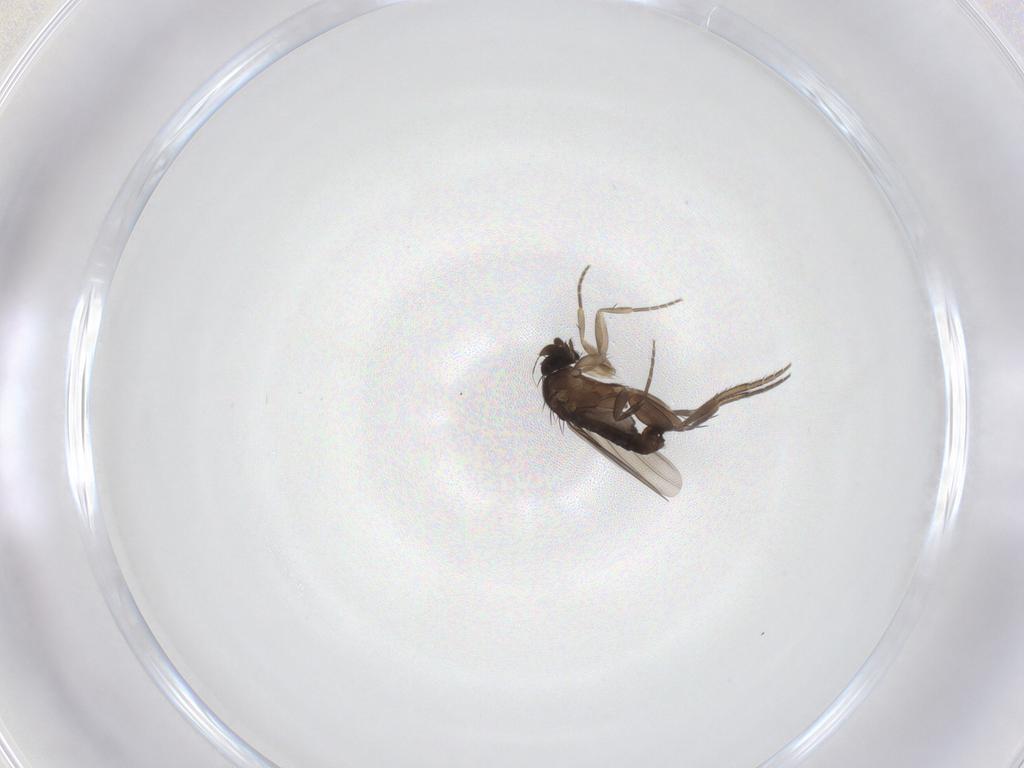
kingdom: Animalia
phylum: Arthropoda
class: Insecta
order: Diptera
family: Phoridae
